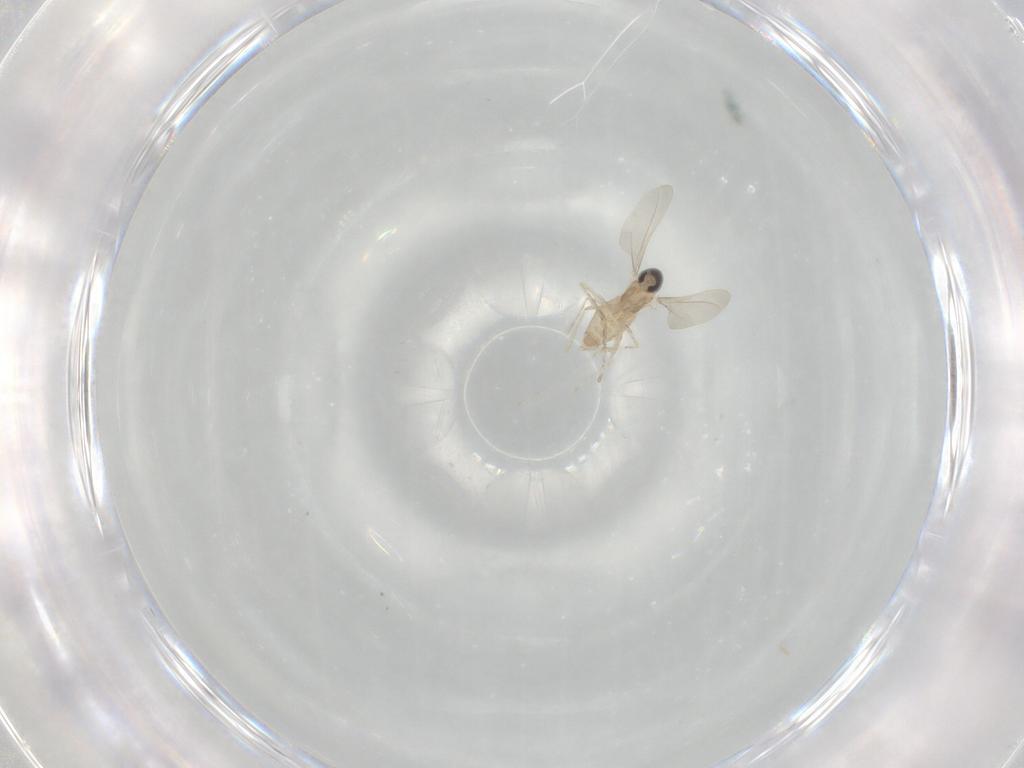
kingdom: Animalia
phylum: Arthropoda
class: Insecta
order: Diptera
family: Cecidomyiidae
